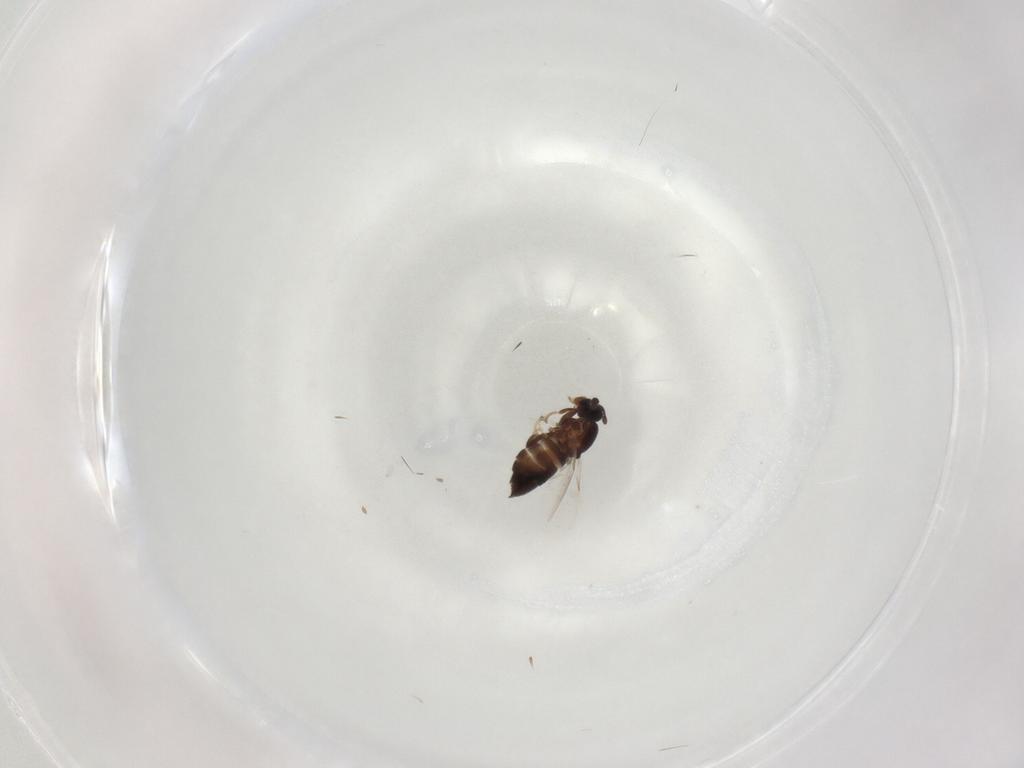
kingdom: Animalia
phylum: Arthropoda
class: Insecta
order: Diptera
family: Scatopsidae
